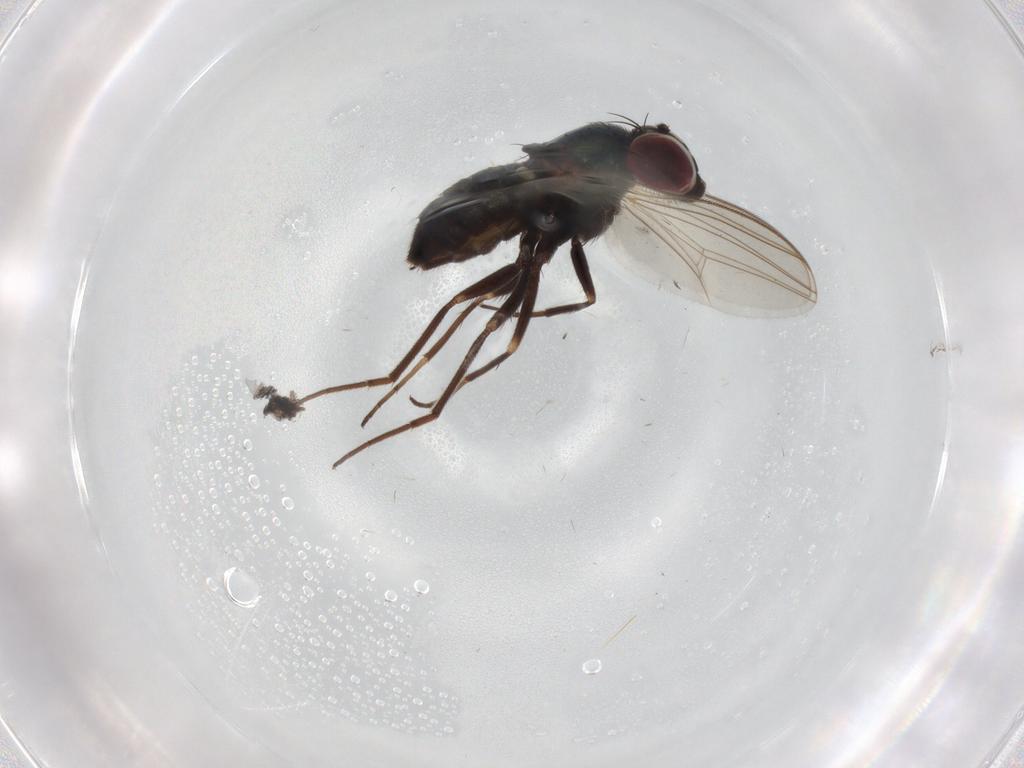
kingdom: Animalia
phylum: Arthropoda
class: Insecta
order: Diptera
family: Dolichopodidae
